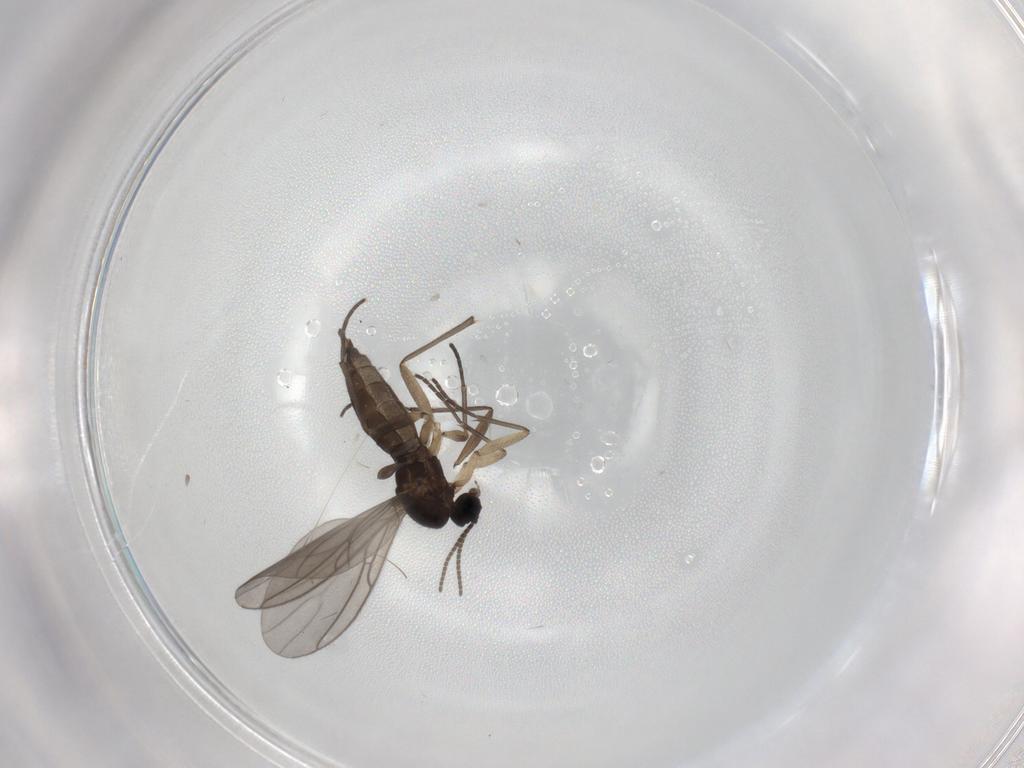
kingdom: Animalia
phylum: Arthropoda
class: Insecta
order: Diptera
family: Sciaridae
